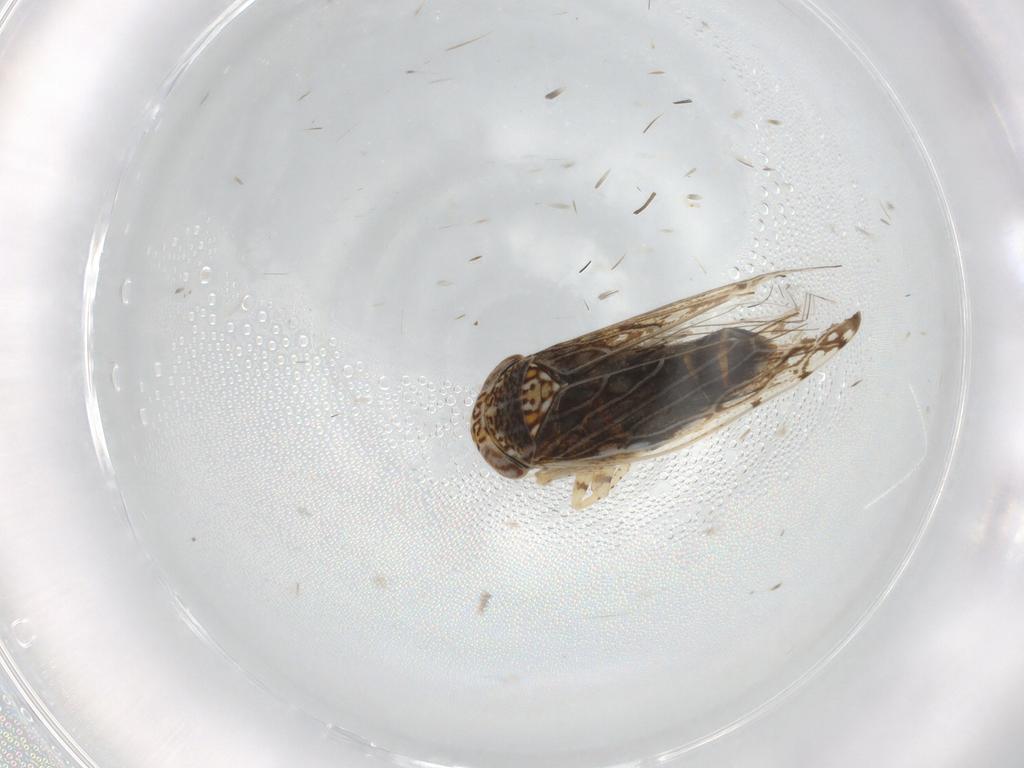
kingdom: Animalia
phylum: Arthropoda
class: Insecta
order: Hemiptera
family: Cicadellidae
